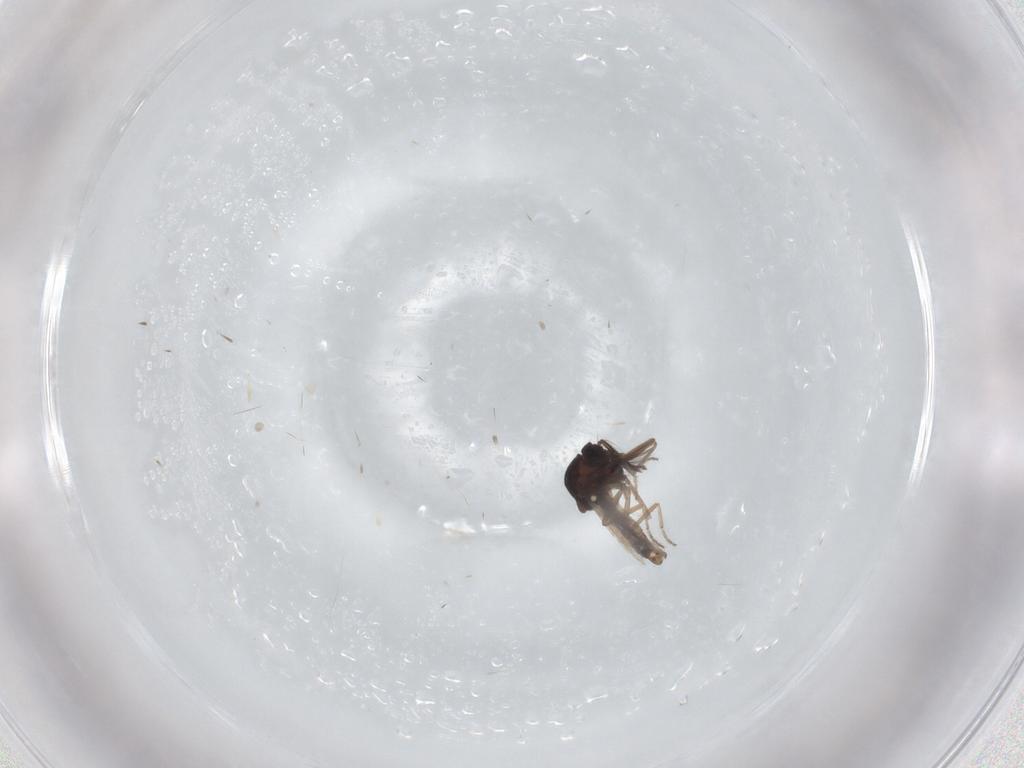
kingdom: Animalia
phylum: Arthropoda
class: Insecta
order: Diptera
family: Ceratopogonidae
